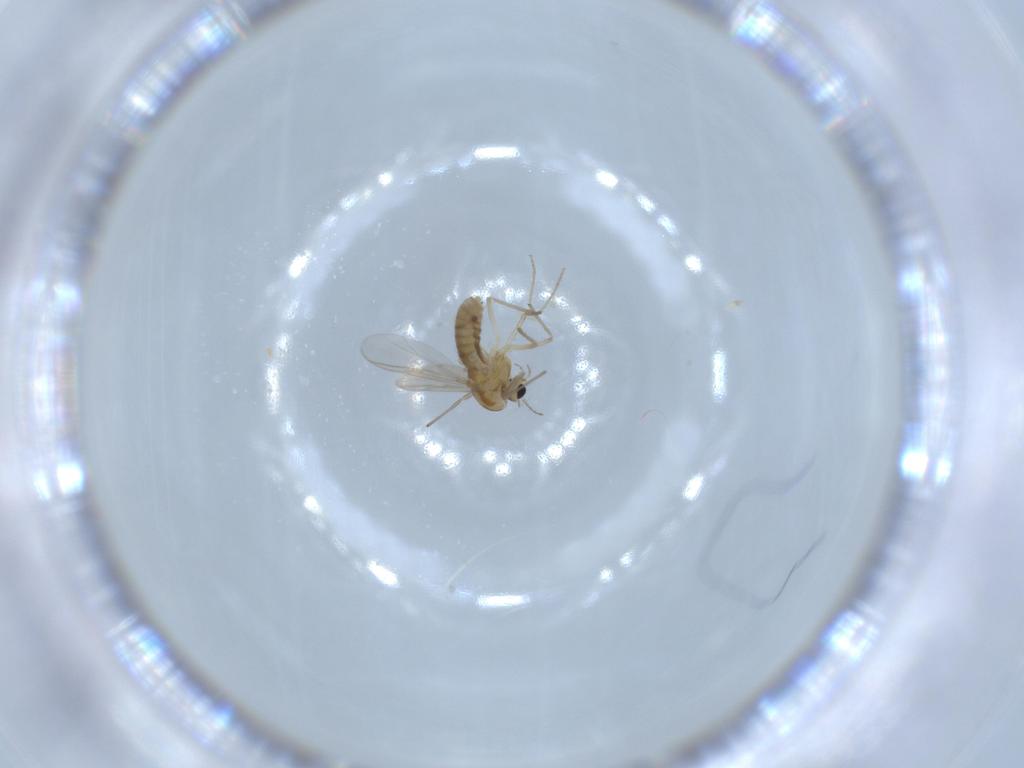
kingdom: Animalia
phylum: Arthropoda
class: Insecta
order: Diptera
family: Chironomidae
